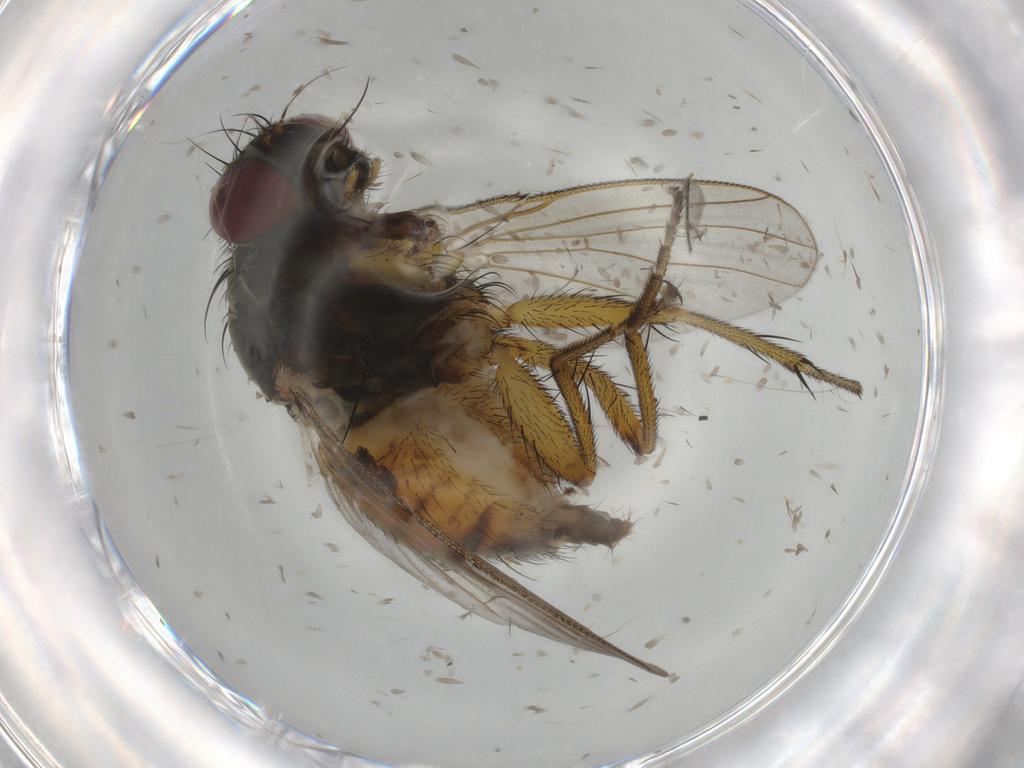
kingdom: Animalia
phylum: Arthropoda
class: Insecta
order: Diptera
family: Muscidae
